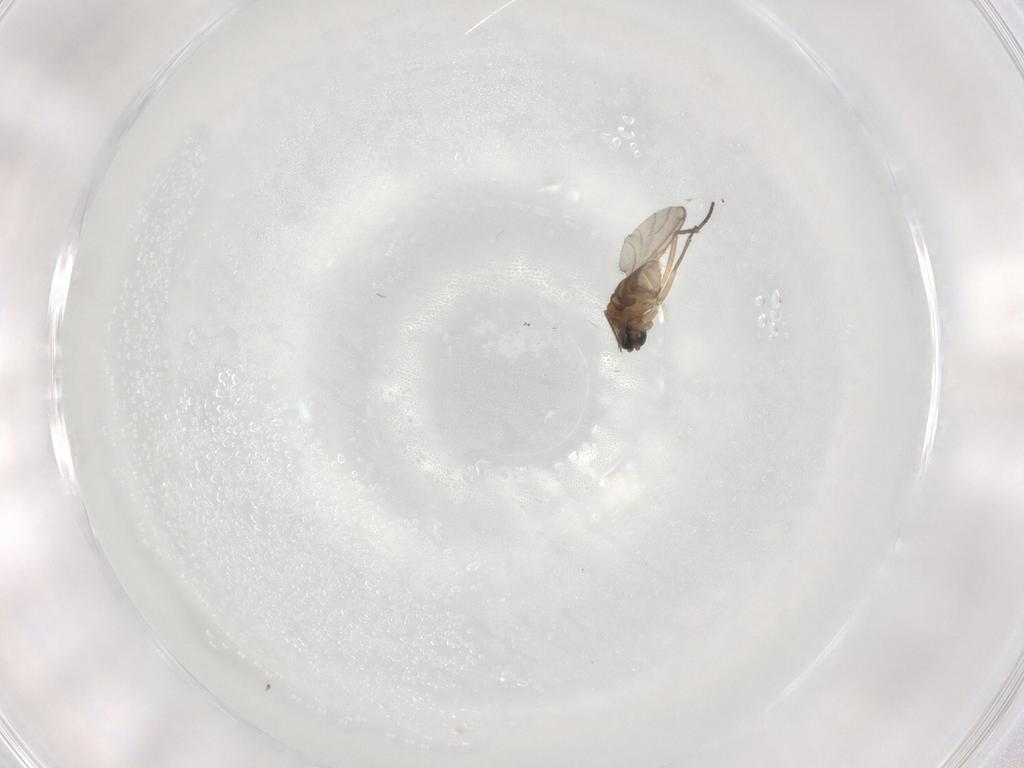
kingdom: Animalia
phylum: Arthropoda
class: Insecta
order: Diptera
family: Sciaridae
